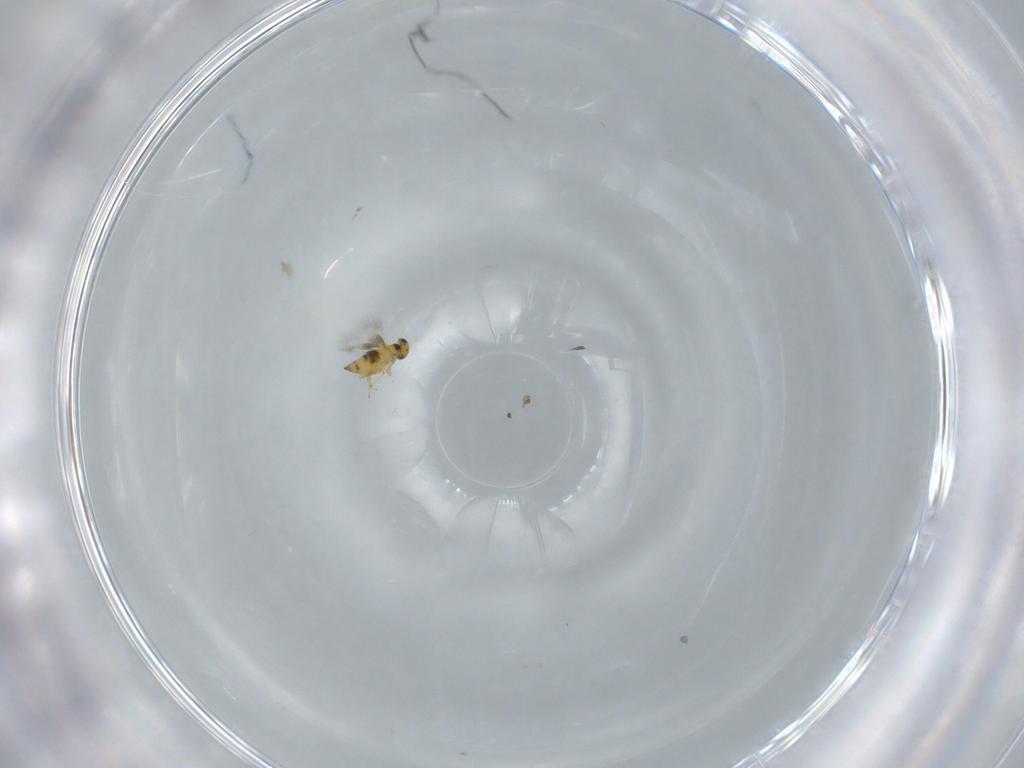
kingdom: Animalia
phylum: Arthropoda
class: Insecta
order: Hymenoptera
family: Signiphoridae
